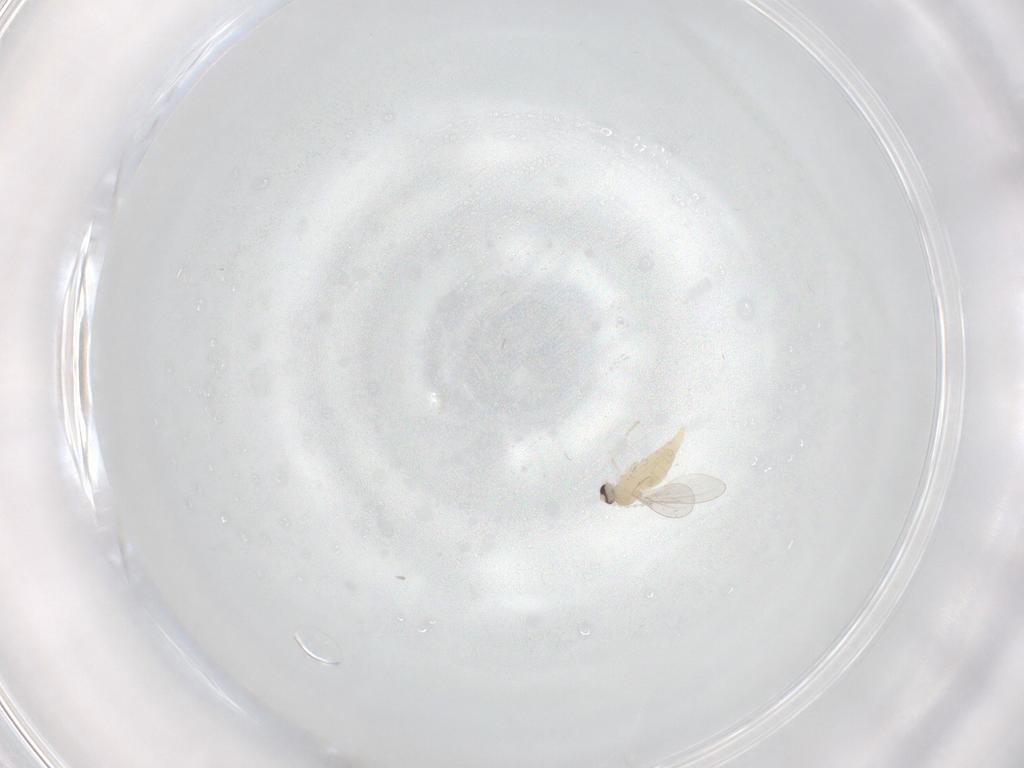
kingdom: Animalia
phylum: Arthropoda
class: Insecta
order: Diptera
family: Cecidomyiidae
